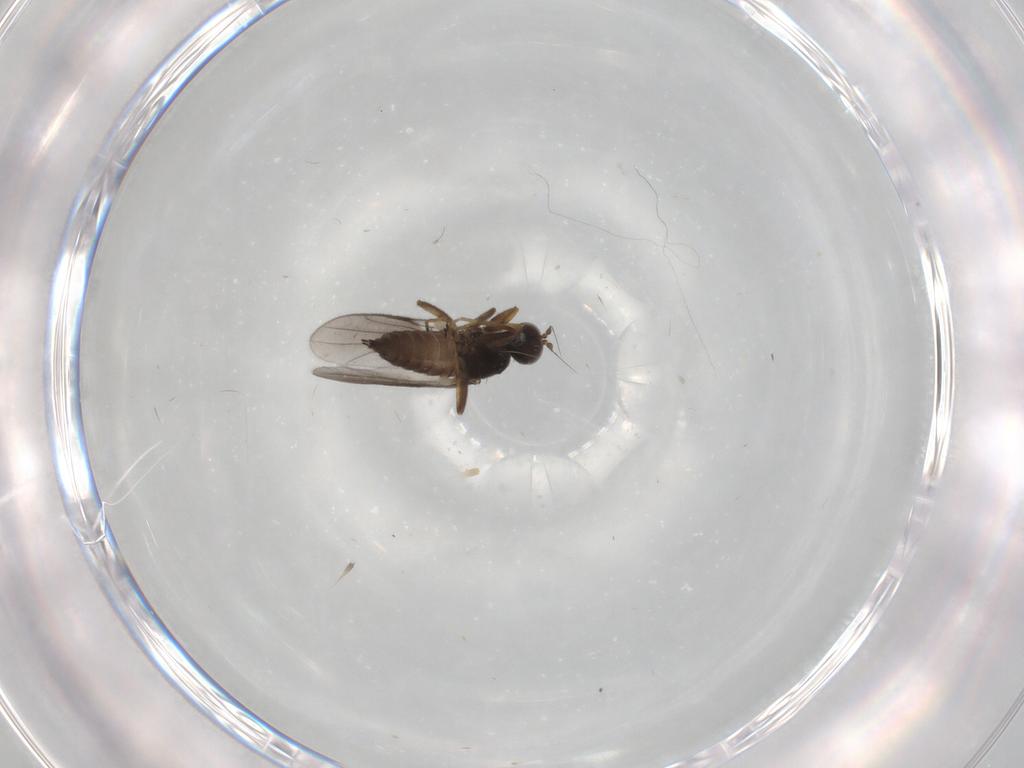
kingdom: Animalia
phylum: Arthropoda
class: Insecta
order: Diptera
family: Hybotidae
